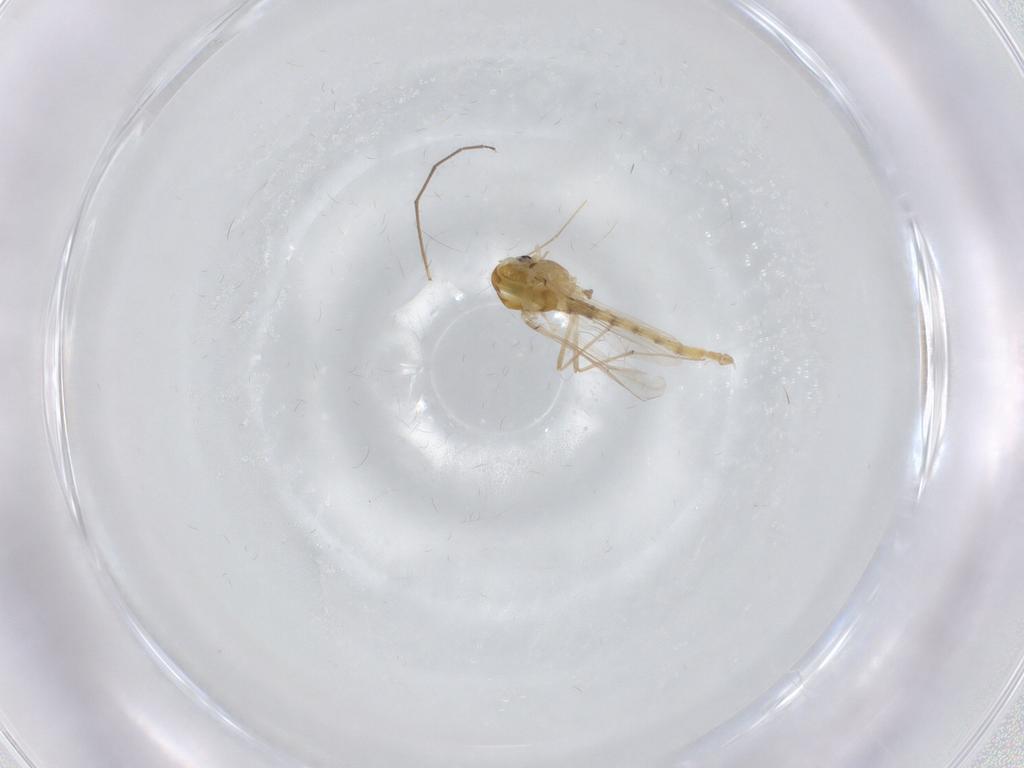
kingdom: Animalia
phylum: Arthropoda
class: Insecta
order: Diptera
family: Chironomidae
